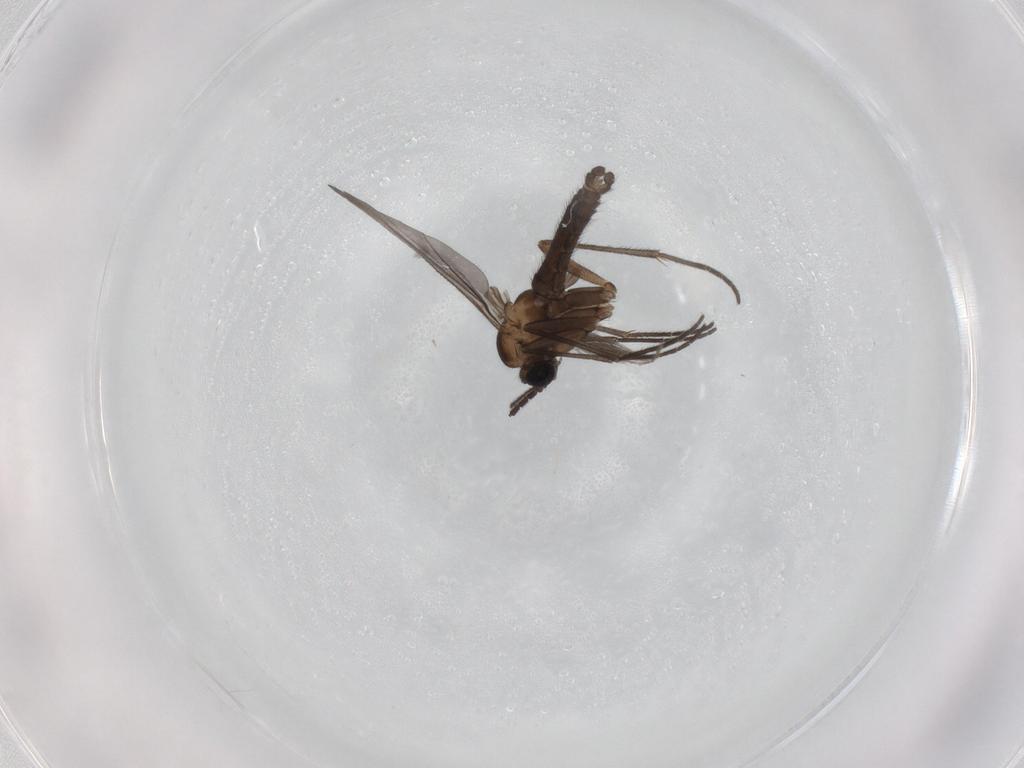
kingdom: Animalia
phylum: Arthropoda
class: Insecta
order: Diptera
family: Sciaridae
